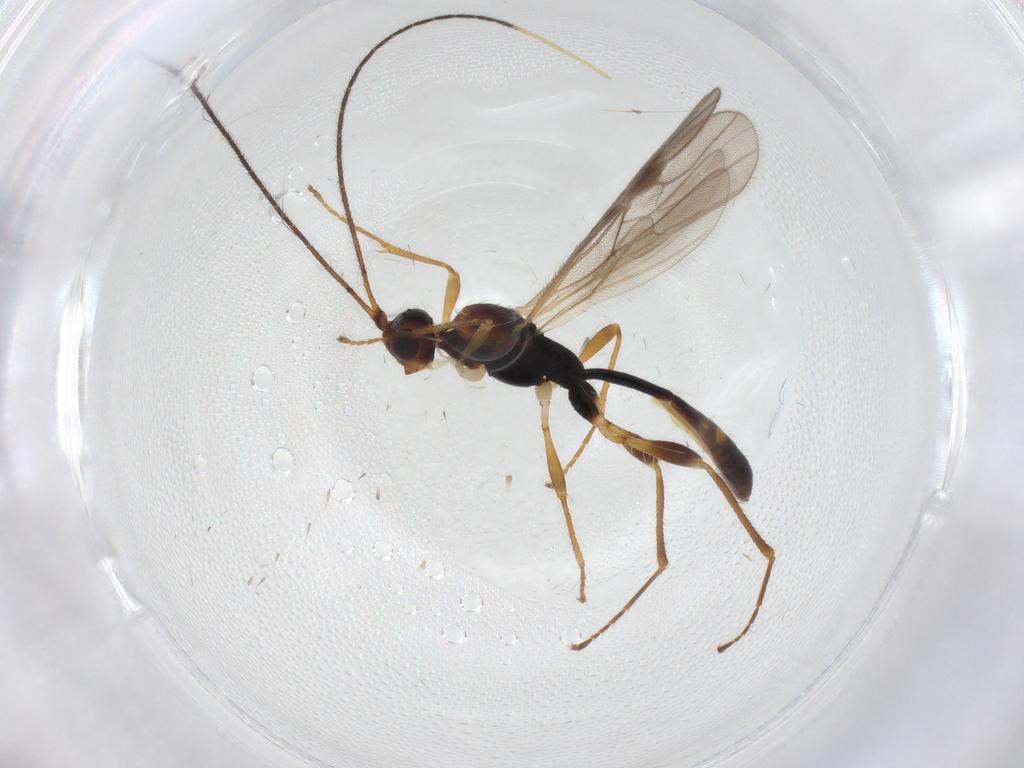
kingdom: Animalia
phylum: Arthropoda
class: Insecta
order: Hymenoptera
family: Braconidae
